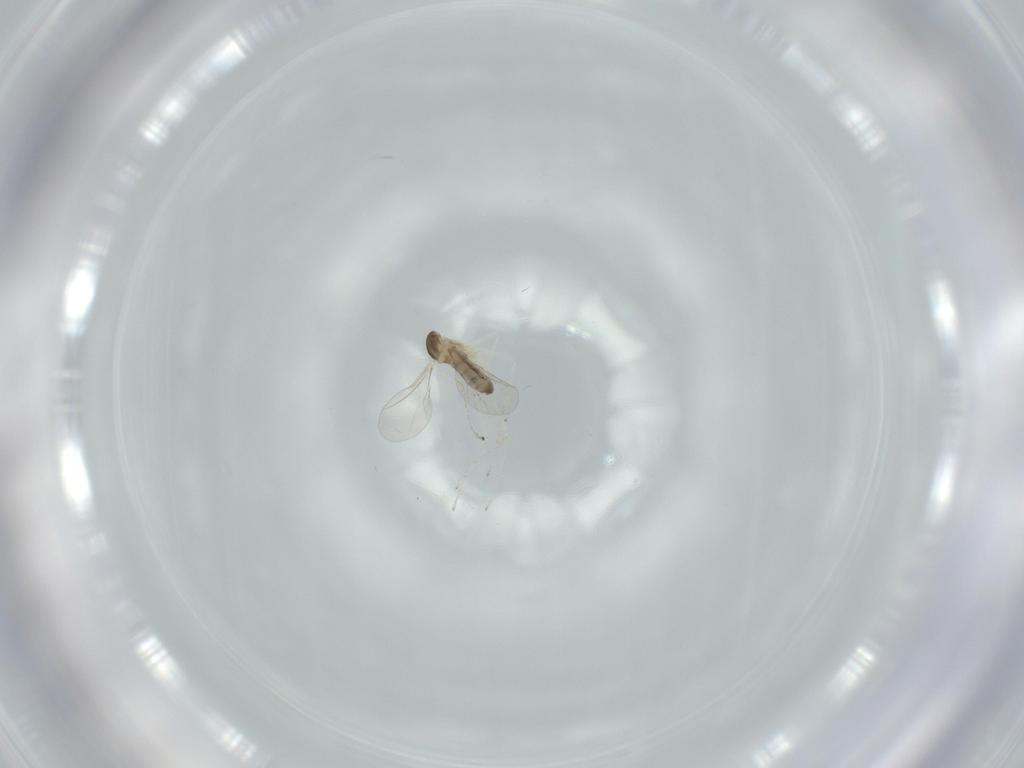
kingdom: Animalia
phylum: Arthropoda
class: Insecta
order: Diptera
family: Cecidomyiidae
